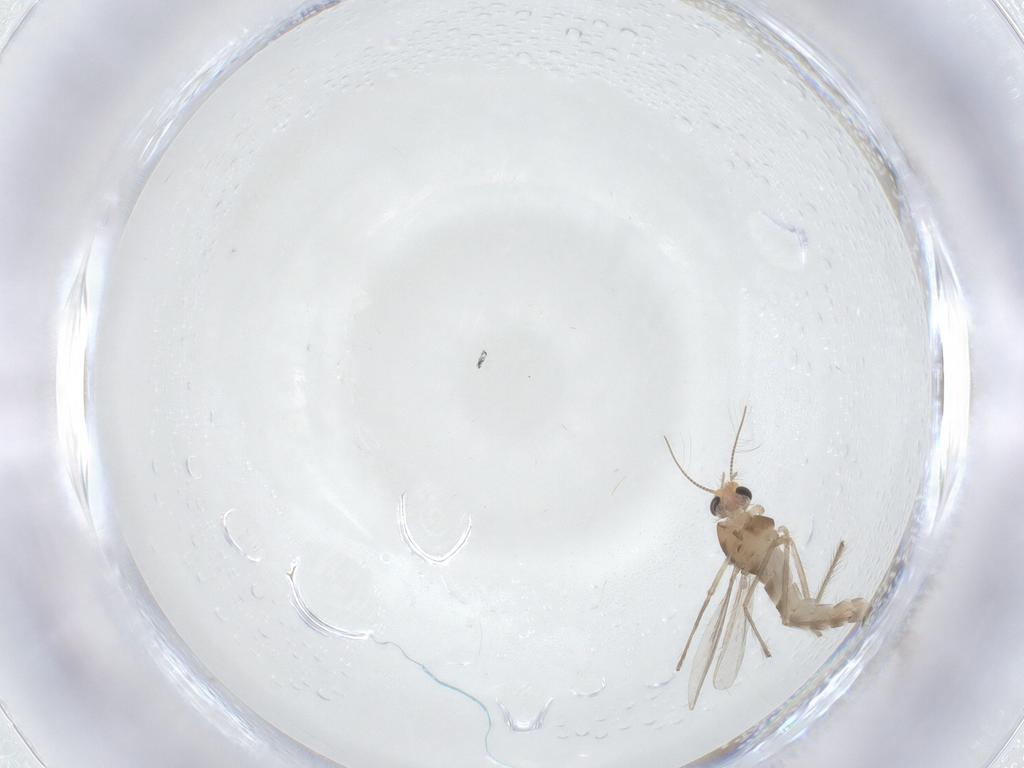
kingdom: Animalia
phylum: Arthropoda
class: Insecta
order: Diptera
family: Chironomidae
